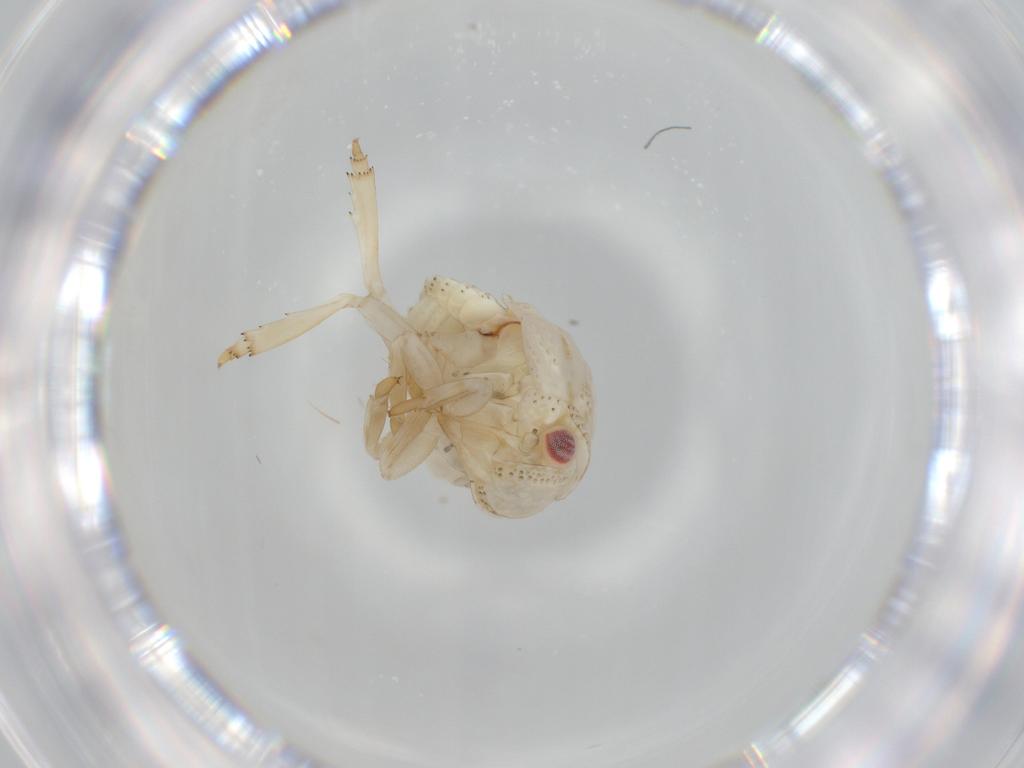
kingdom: Animalia
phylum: Arthropoda
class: Insecta
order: Hemiptera
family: Acanaloniidae
